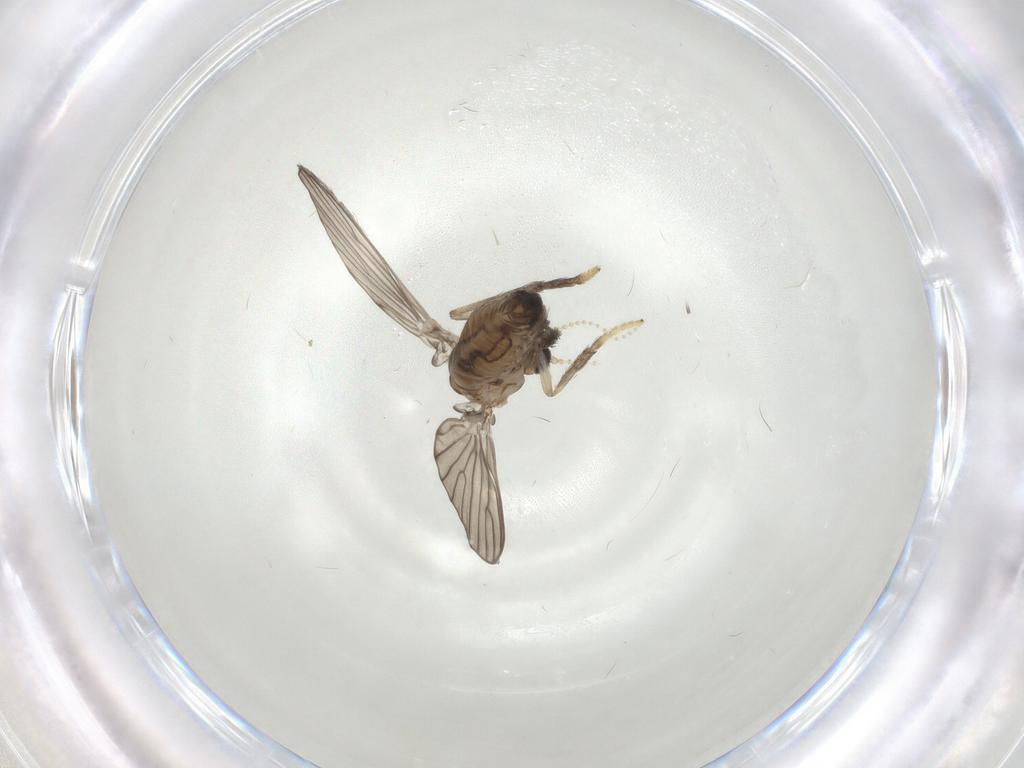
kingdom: Animalia
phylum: Arthropoda
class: Insecta
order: Diptera
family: Psychodidae
